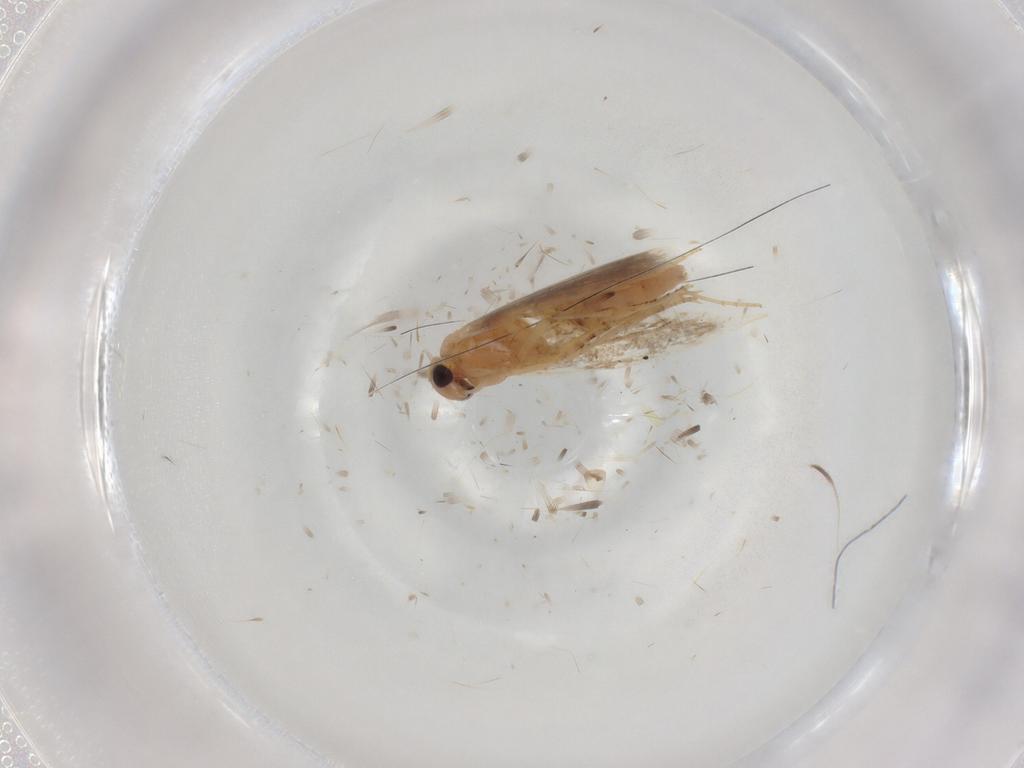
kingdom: Animalia
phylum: Arthropoda
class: Insecta
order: Lepidoptera
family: Bucculatricidae
